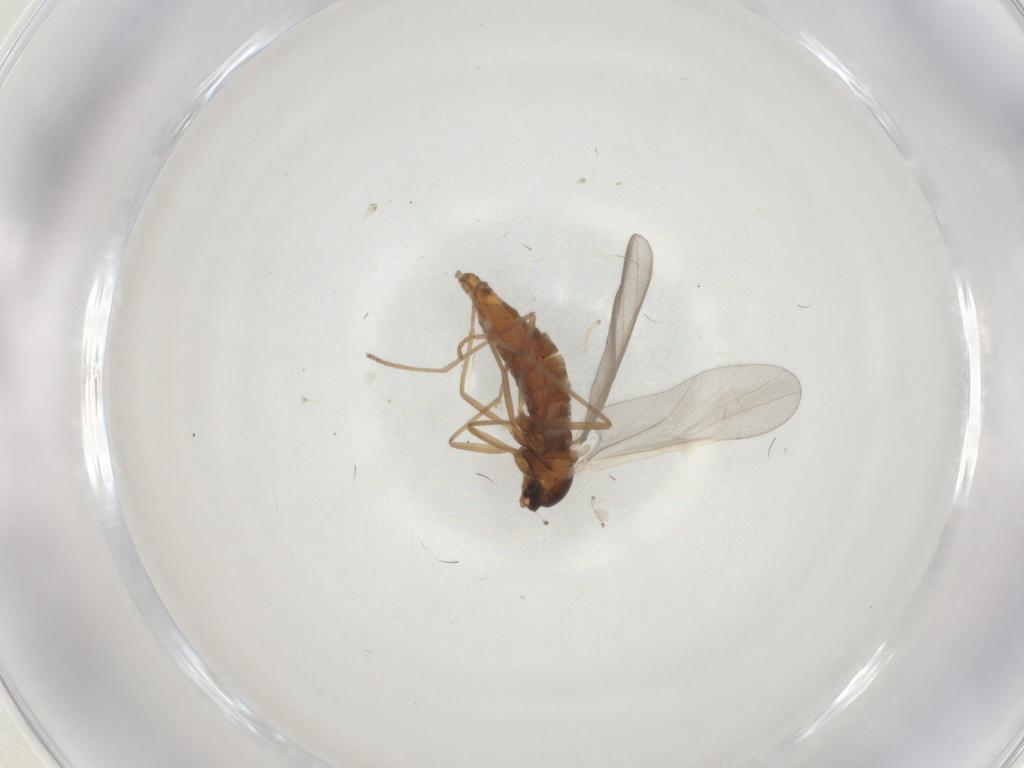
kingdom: Animalia
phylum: Arthropoda
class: Insecta
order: Diptera
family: Cecidomyiidae
